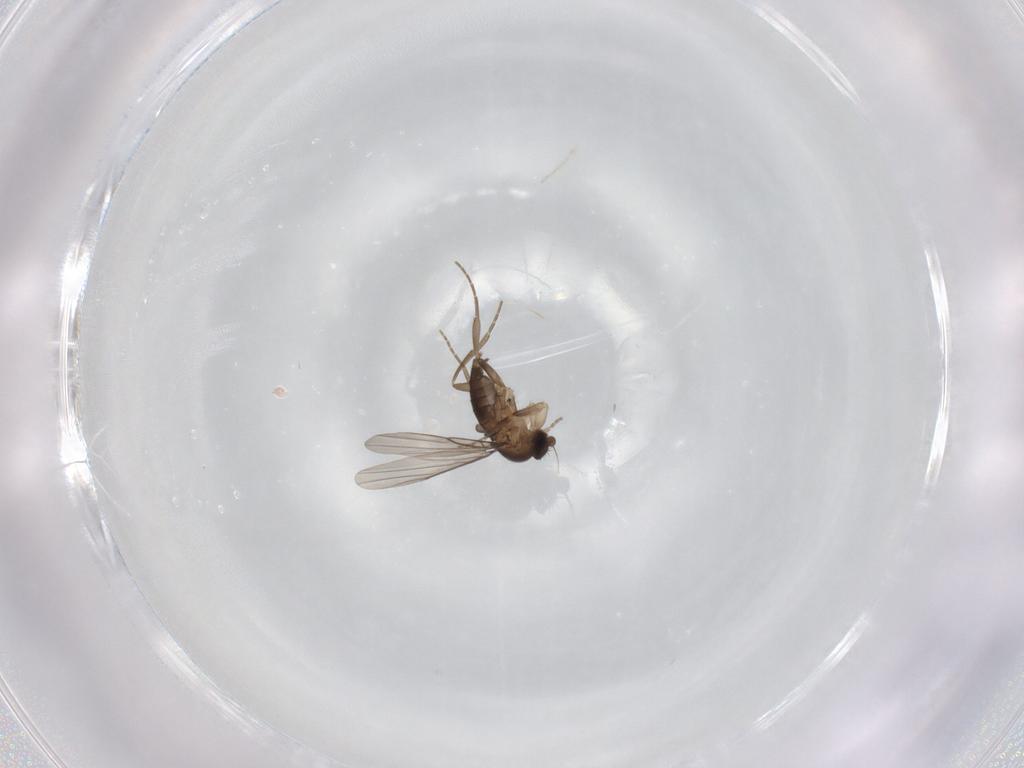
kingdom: Animalia
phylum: Arthropoda
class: Insecta
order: Diptera
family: Phoridae
